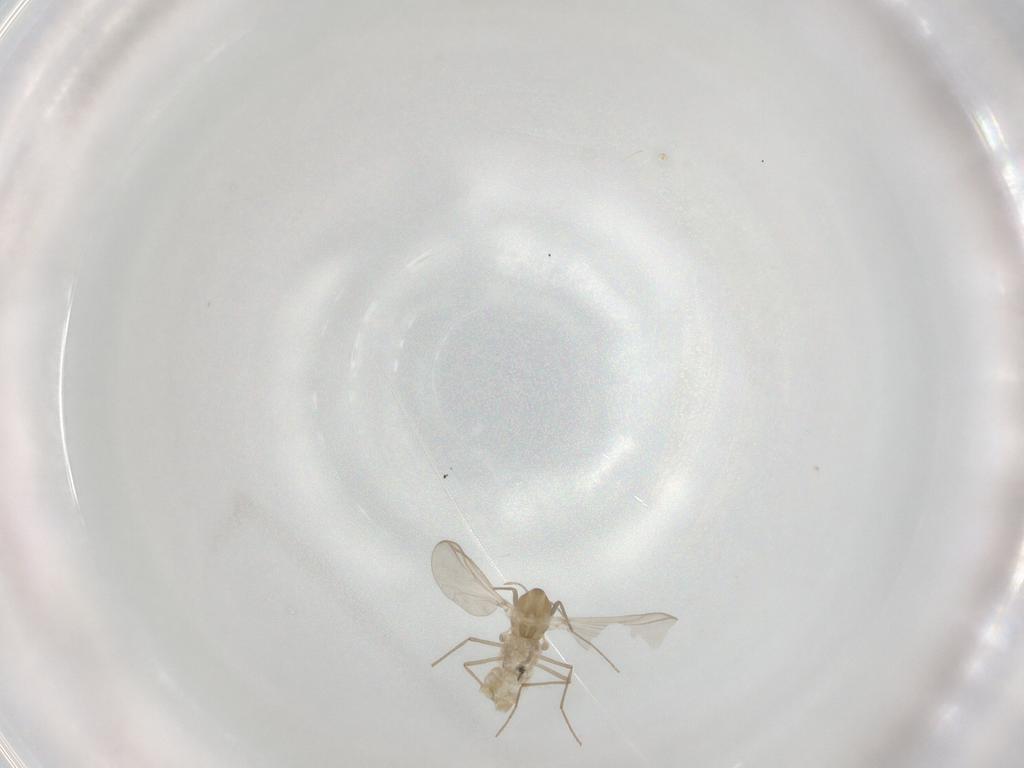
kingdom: Animalia
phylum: Arthropoda
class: Insecta
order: Diptera
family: Chironomidae
